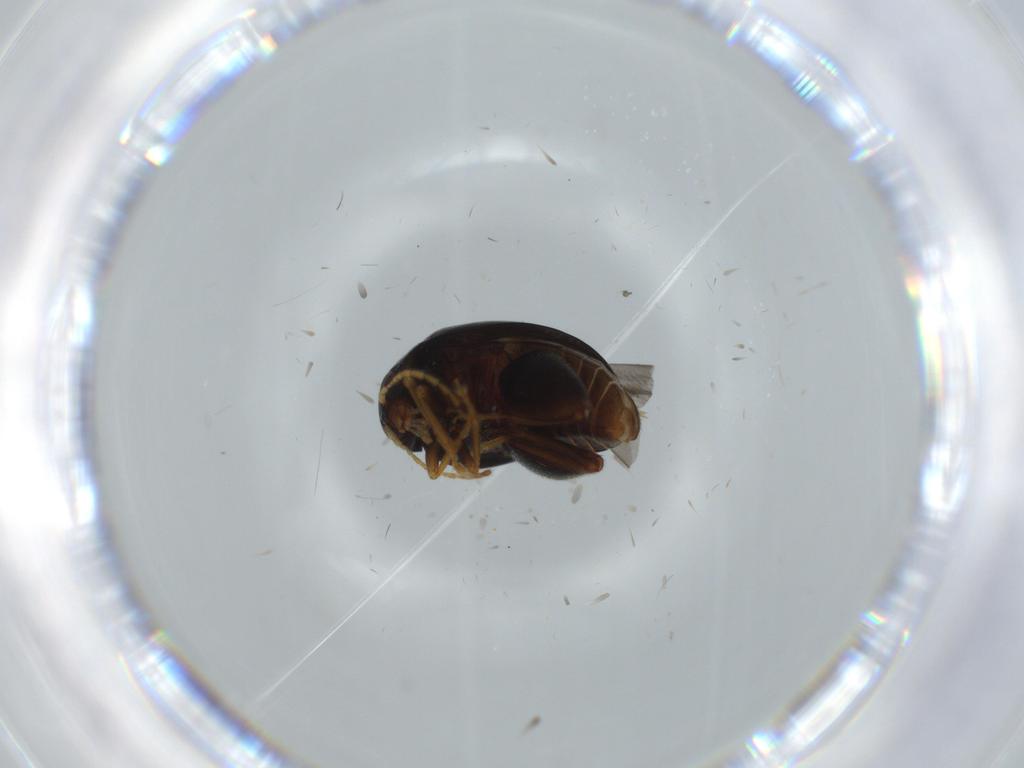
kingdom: Animalia
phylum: Arthropoda
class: Insecta
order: Coleoptera
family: Chrysomelidae
